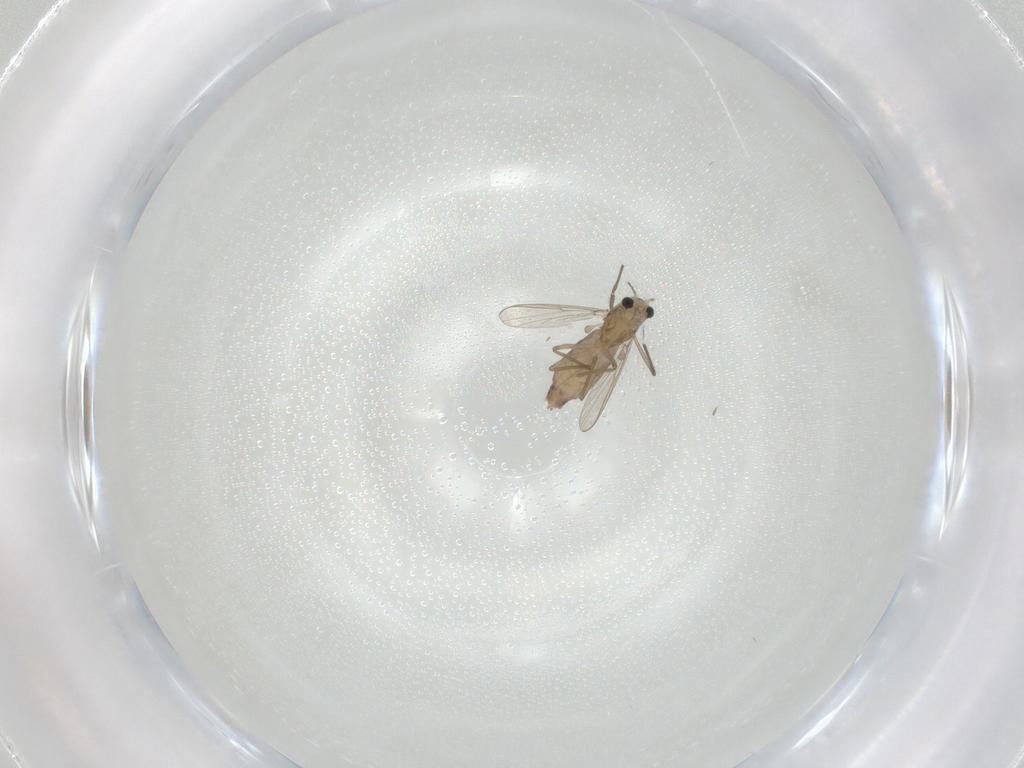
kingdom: Animalia
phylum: Arthropoda
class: Insecta
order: Diptera
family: Chironomidae
